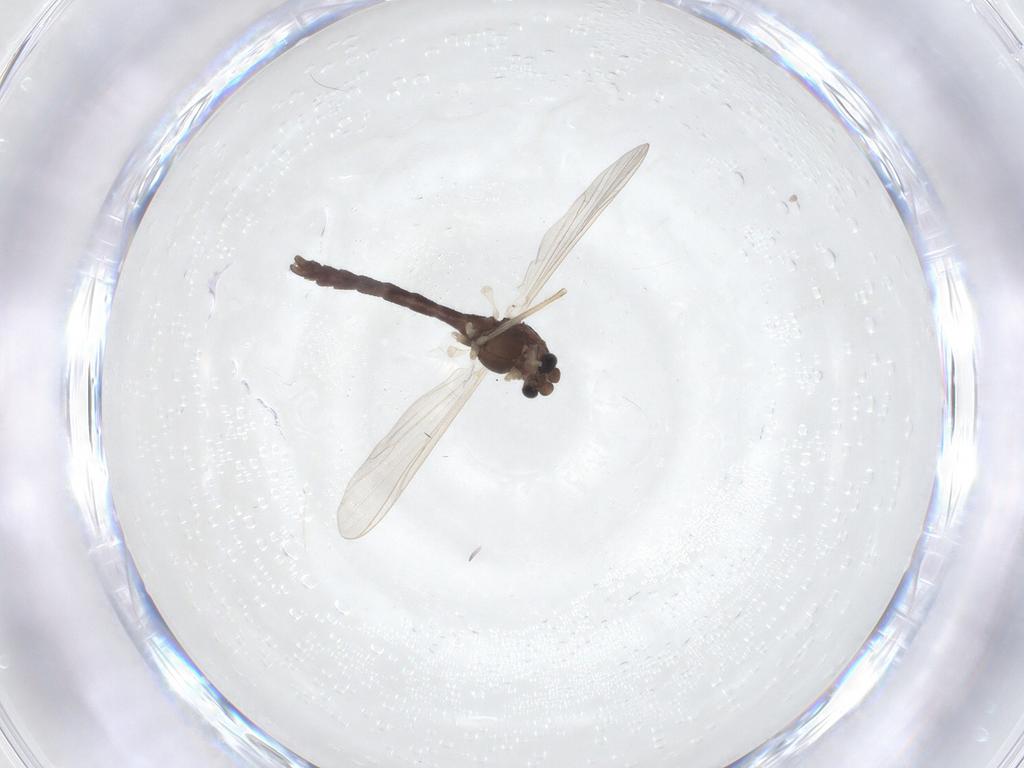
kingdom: Animalia
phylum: Arthropoda
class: Insecta
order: Diptera
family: Chironomidae
